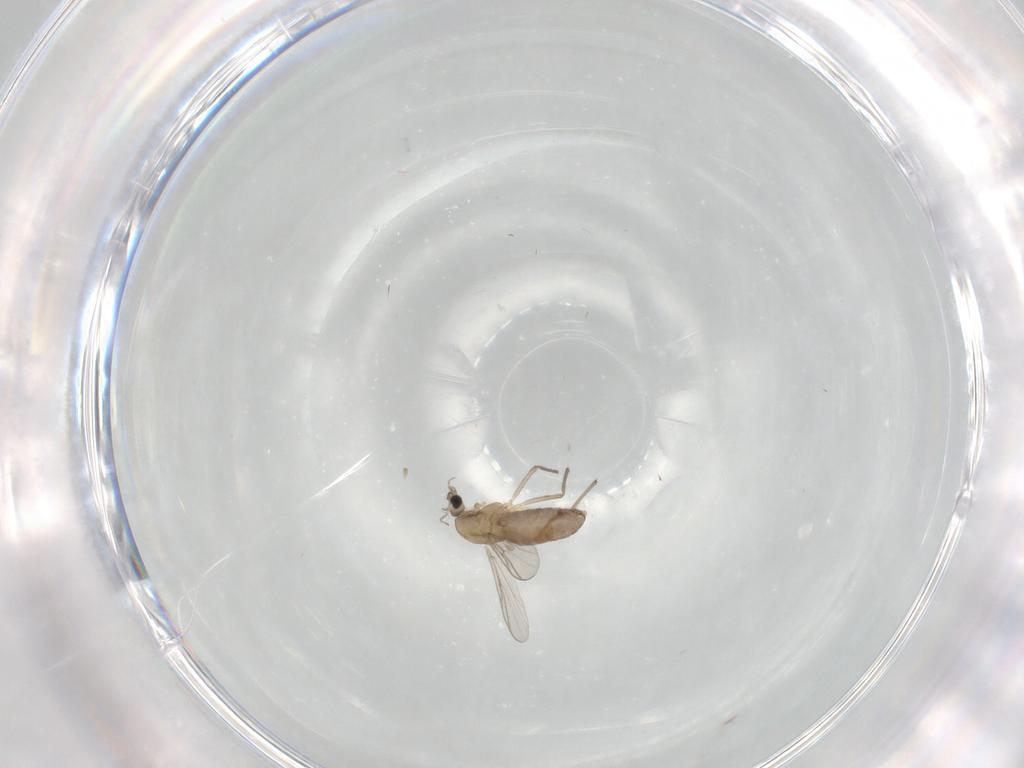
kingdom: Animalia
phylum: Arthropoda
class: Insecta
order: Diptera
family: Chironomidae
